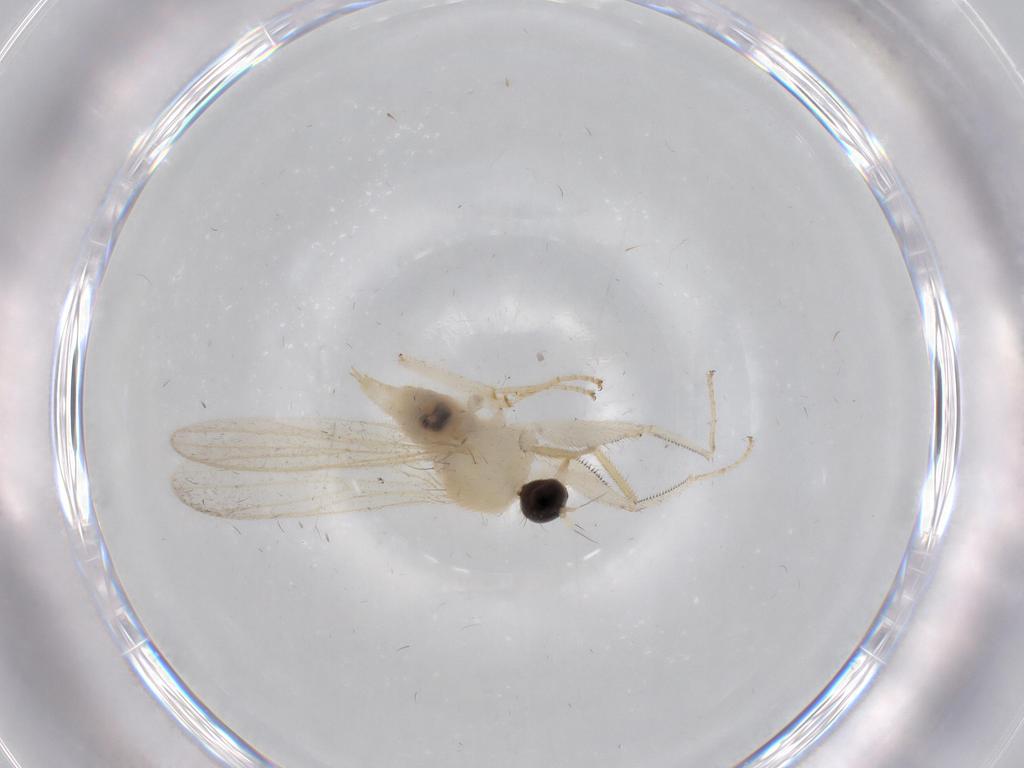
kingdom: Animalia
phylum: Arthropoda
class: Insecta
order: Diptera
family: Hybotidae
